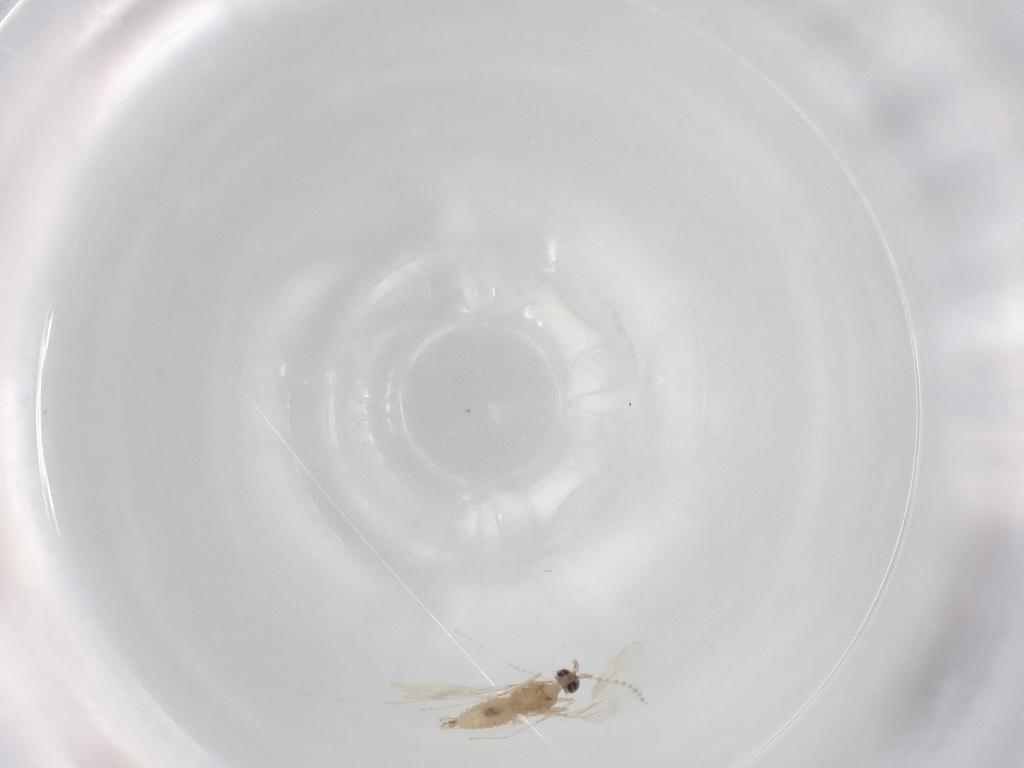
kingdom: Animalia
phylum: Arthropoda
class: Insecta
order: Diptera
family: Cecidomyiidae
